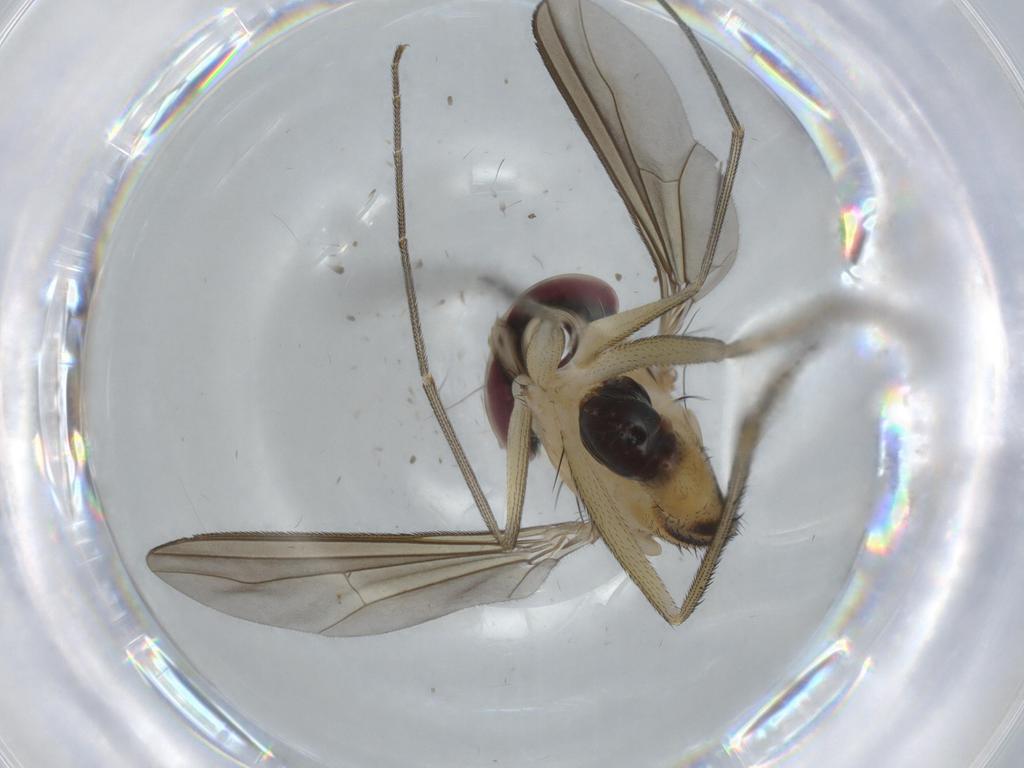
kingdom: Animalia
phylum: Arthropoda
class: Insecta
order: Diptera
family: Dolichopodidae
